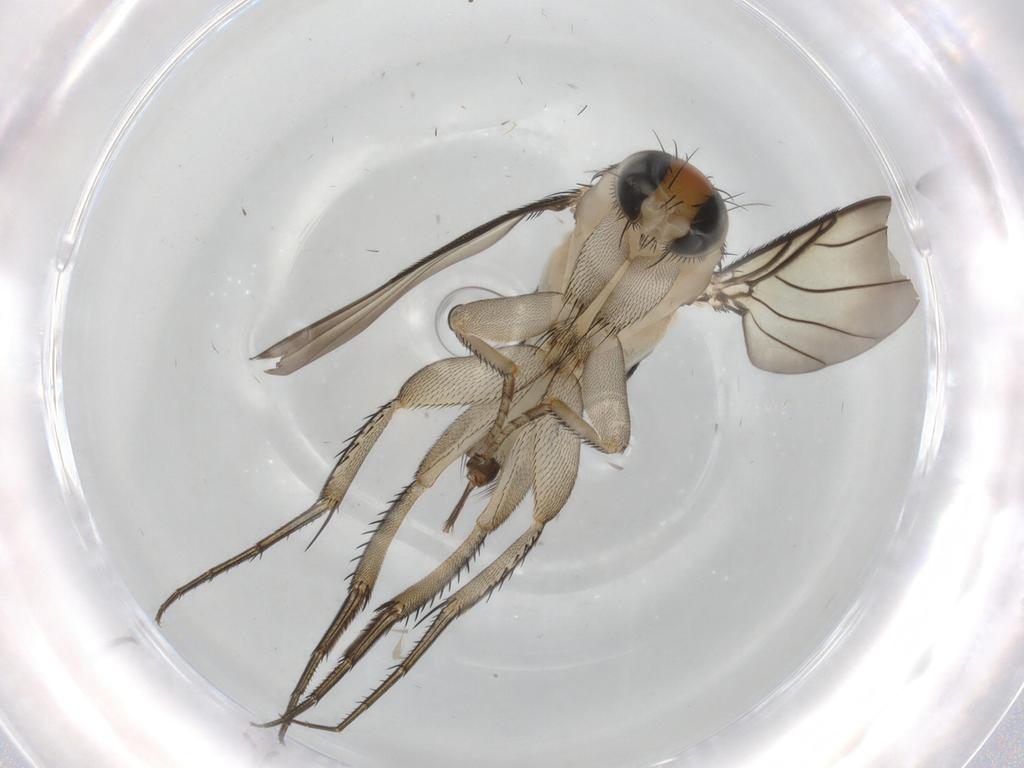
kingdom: Animalia
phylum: Arthropoda
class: Insecta
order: Diptera
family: Phoridae
